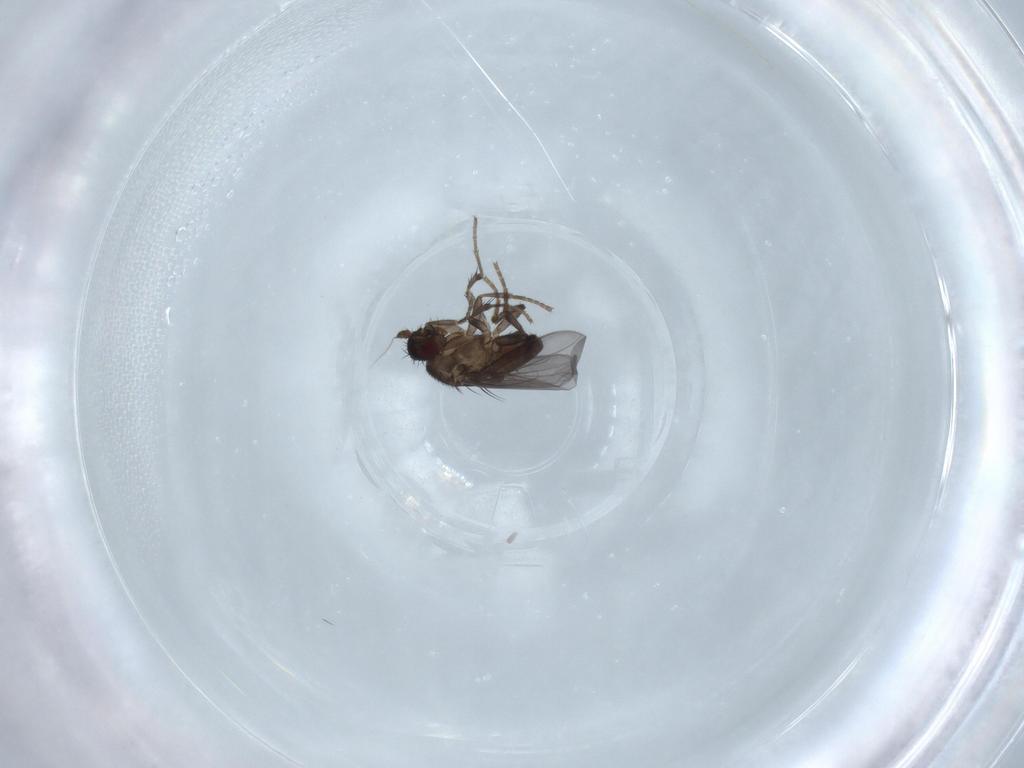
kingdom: Animalia
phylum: Arthropoda
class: Insecta
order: Diptera
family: Sphaeroceridae
